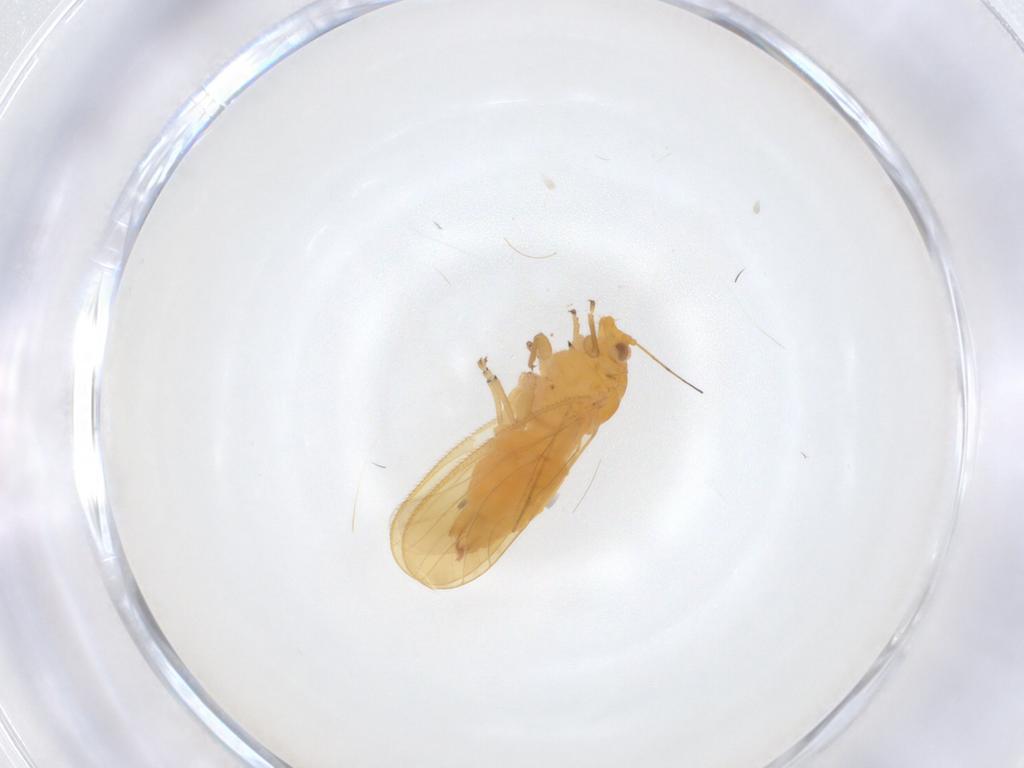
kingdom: Animalia
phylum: Arthropoda
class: Insecta
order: Hemiptera
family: Psyllidae
